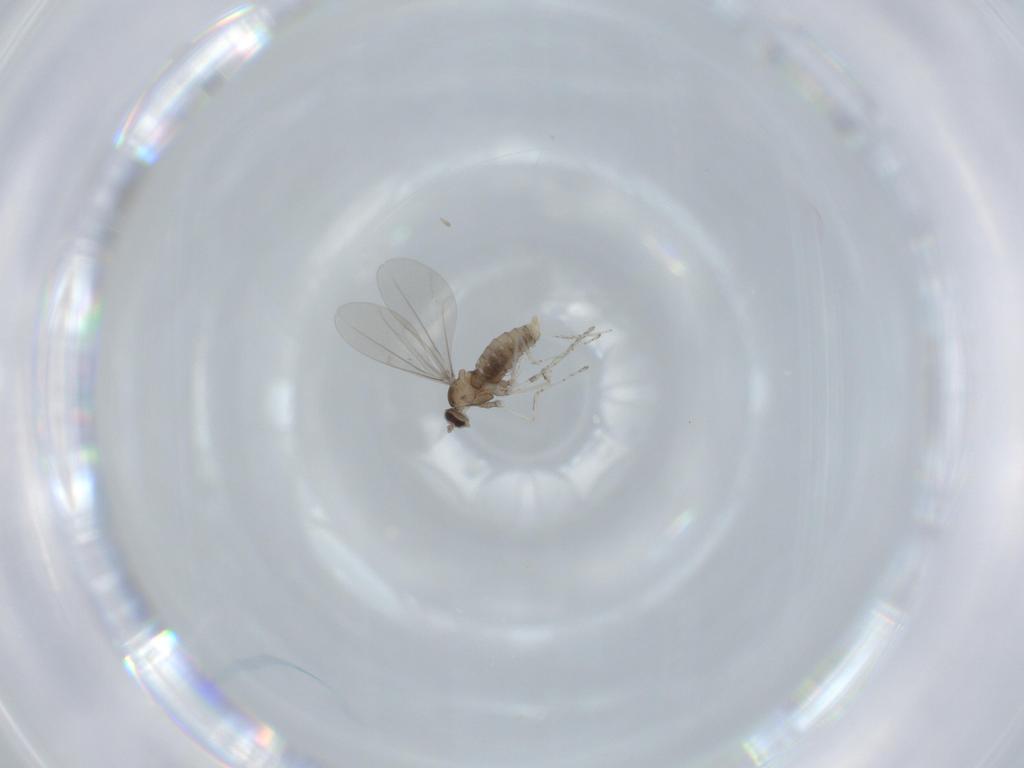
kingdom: Animalia
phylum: Arthropoda
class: Insecta
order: Diptera
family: Cecidomyiidae
